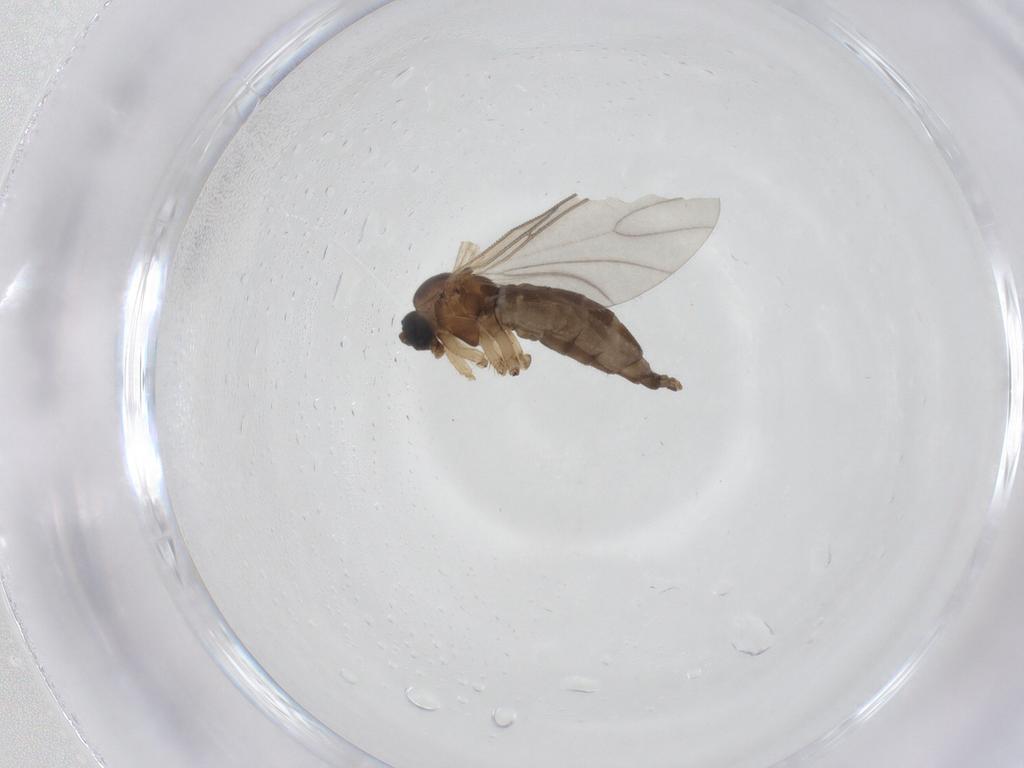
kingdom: Animalia
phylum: Arthropoda
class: Insecta
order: Diptera
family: Sciaridae
